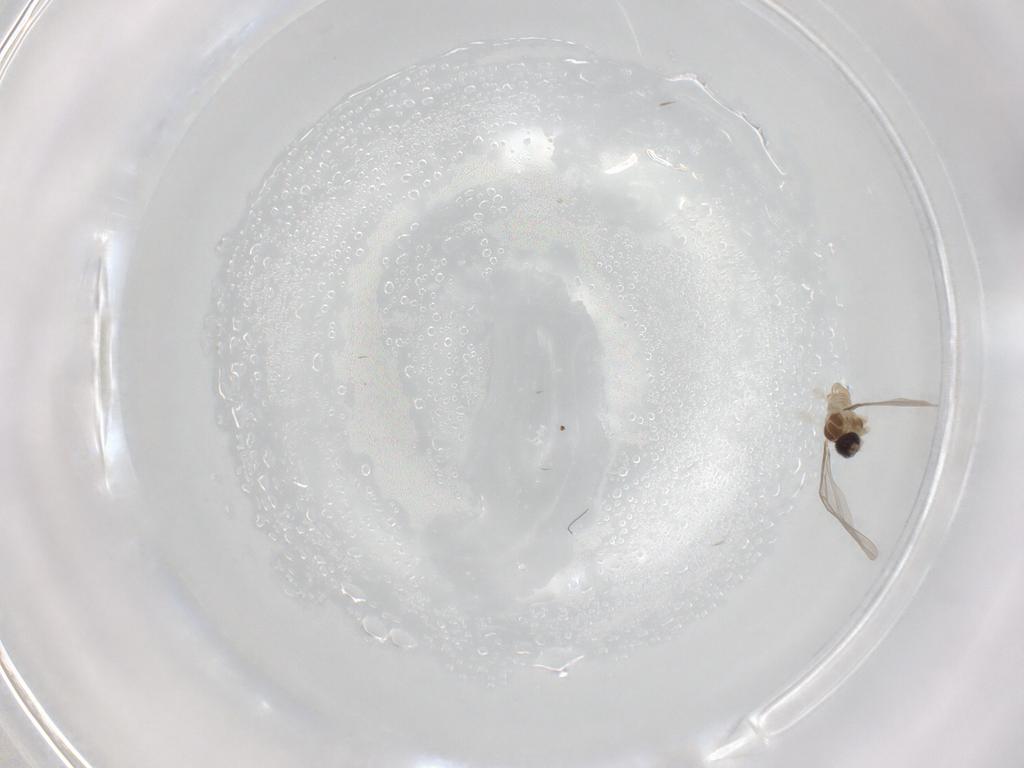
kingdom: Animalia
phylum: Arthropoda
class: Insecta
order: Diptera
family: Cecidomyiidae
